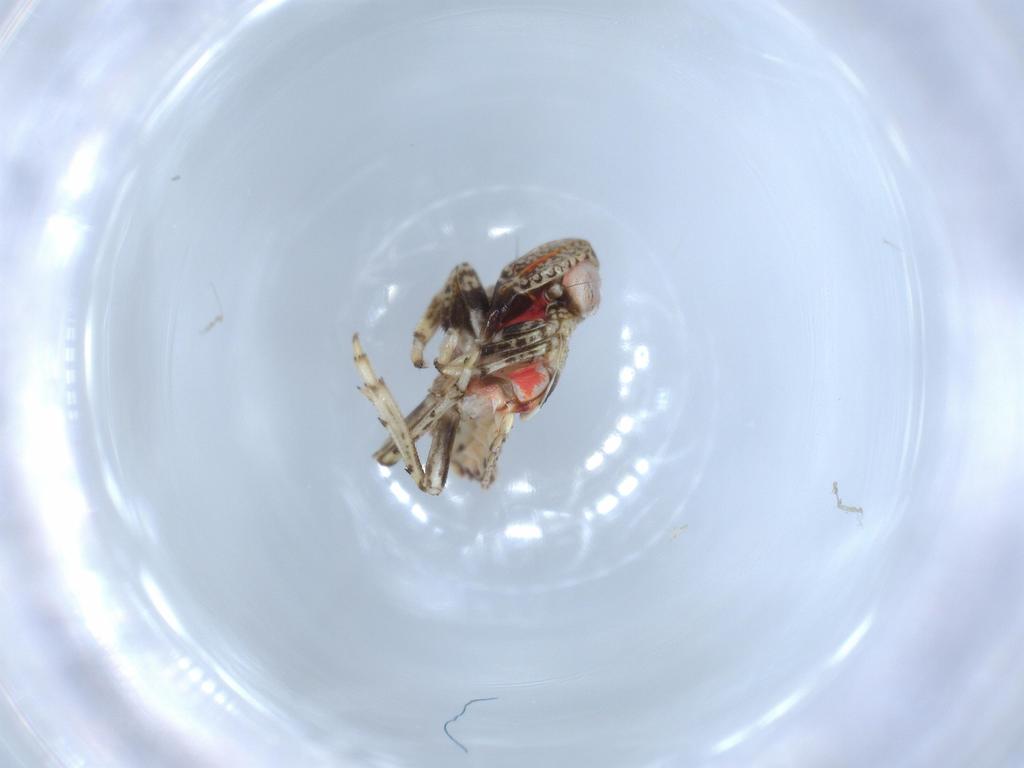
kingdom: Animalia
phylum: Arthropoda
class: Insecta
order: Hemiptera
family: Issidae
